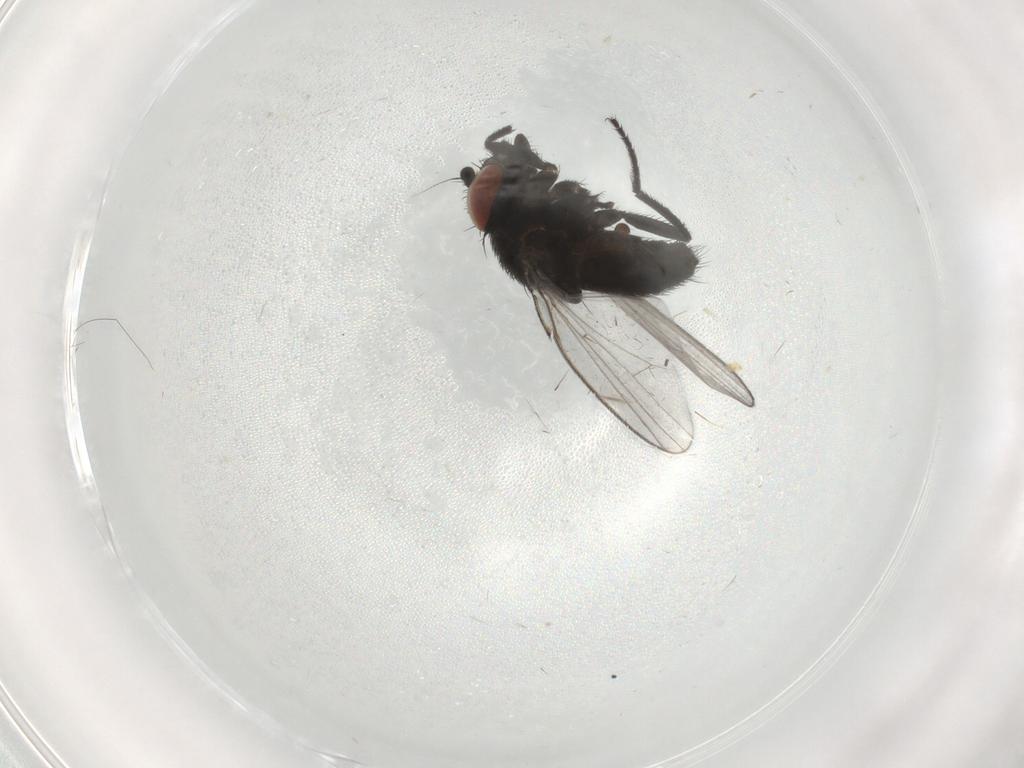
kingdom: Animalia
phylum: Arthropoda
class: Insecta
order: Diptera
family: Milichiidae
